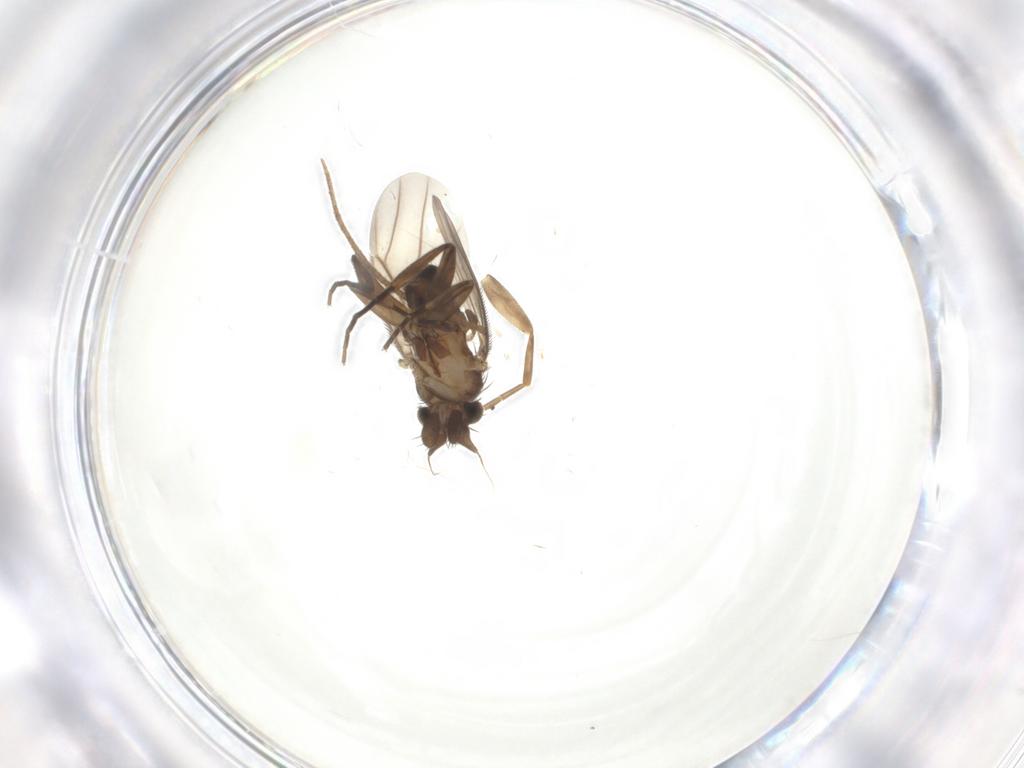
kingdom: Animalia
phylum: Arthropoda
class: Insecta
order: Diptera
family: Phoridae
